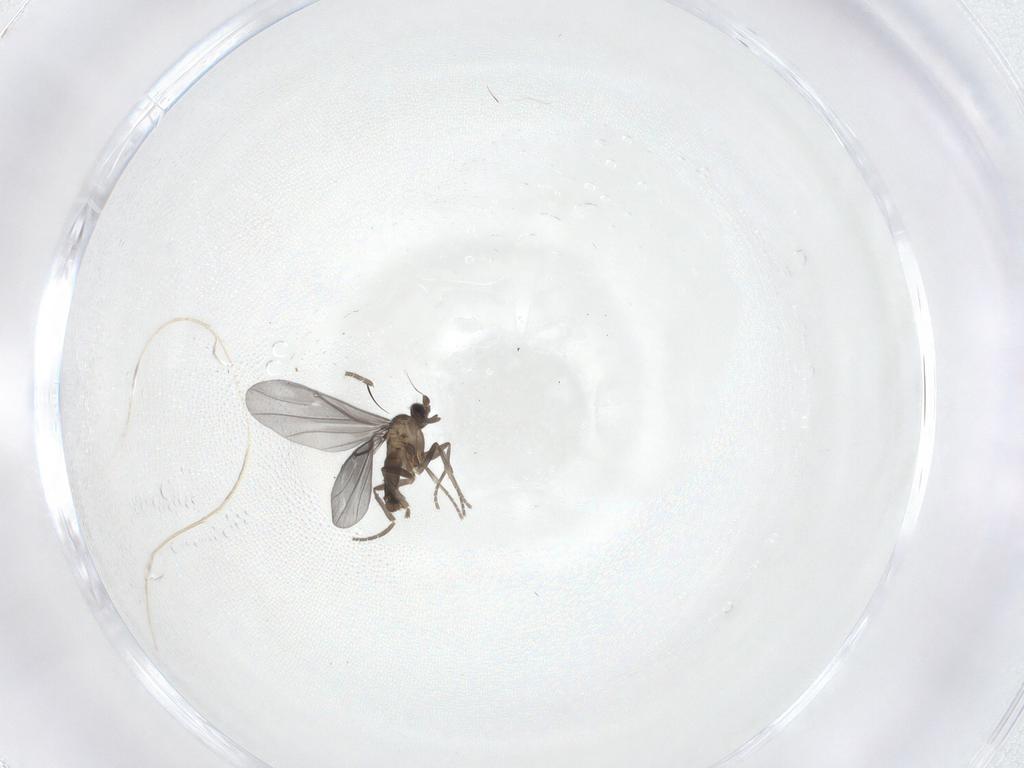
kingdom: Animalia
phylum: Arthropoda
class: Insecta
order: Diptera
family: Phoridae
